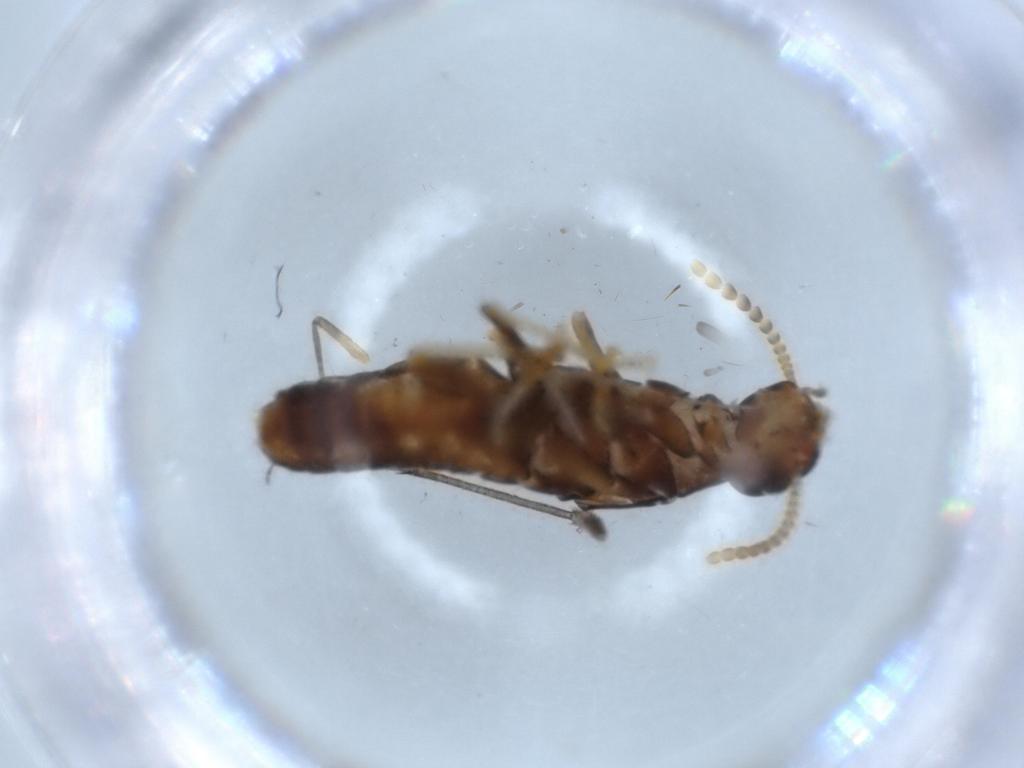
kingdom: Animalia
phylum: Arthropoda
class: Insecta
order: Blattodea
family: Blattidae
